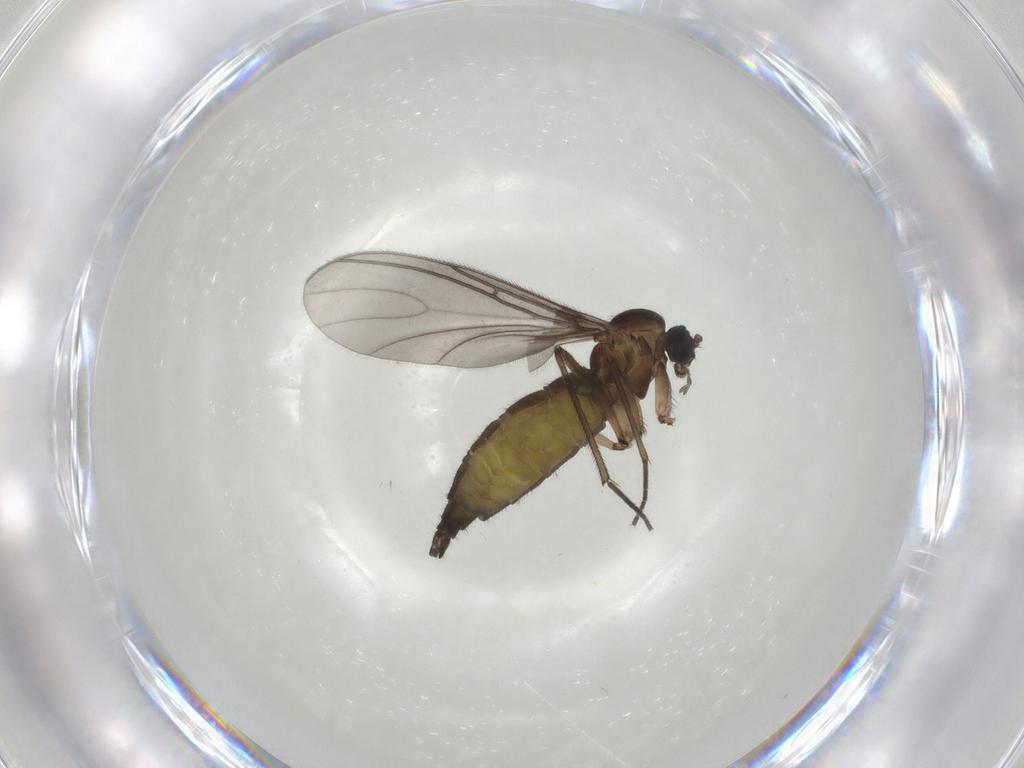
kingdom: Animalia
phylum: Arthropoda
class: Insecta
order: Diptera
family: Sciaridae
